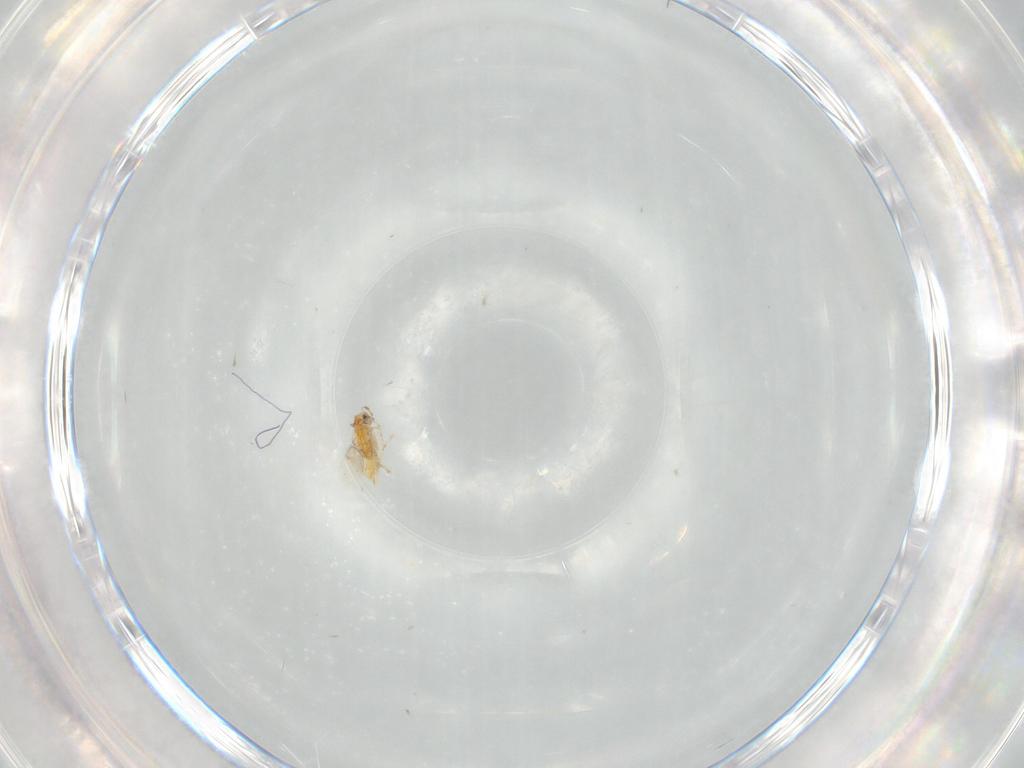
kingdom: Animalia
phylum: Arthropoda
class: Insecta
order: Hymenoptera
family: Aphelinidae
